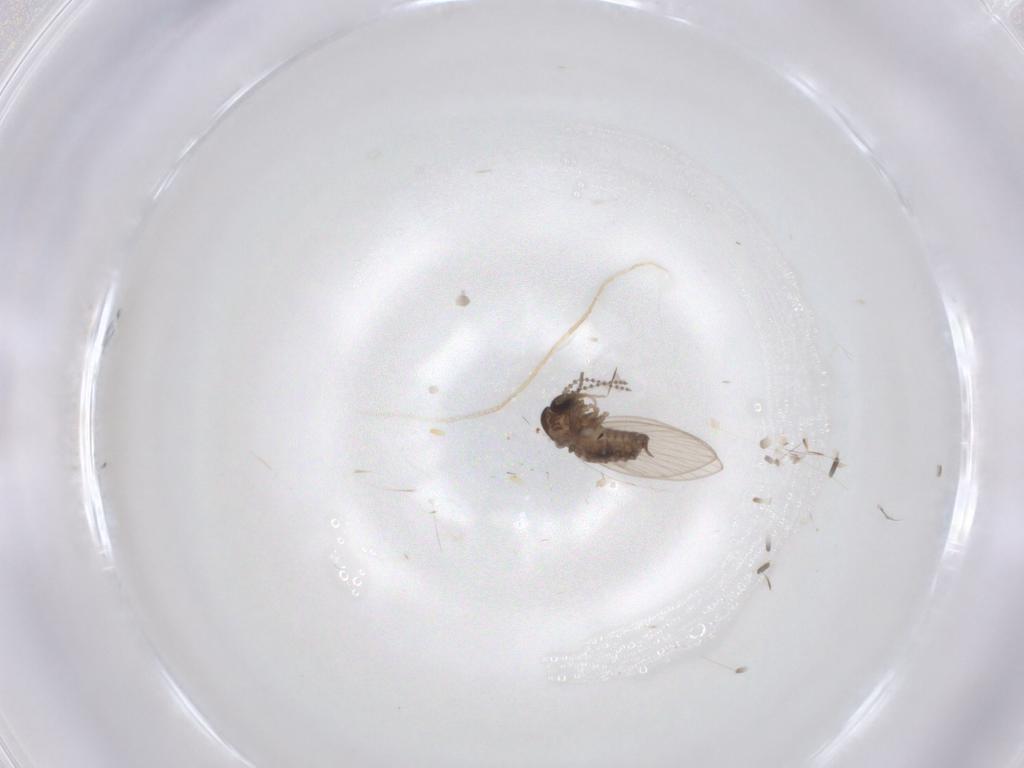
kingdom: Animalia
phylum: Arthropoda
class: Insecta
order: Diptera
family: Psychodidae
